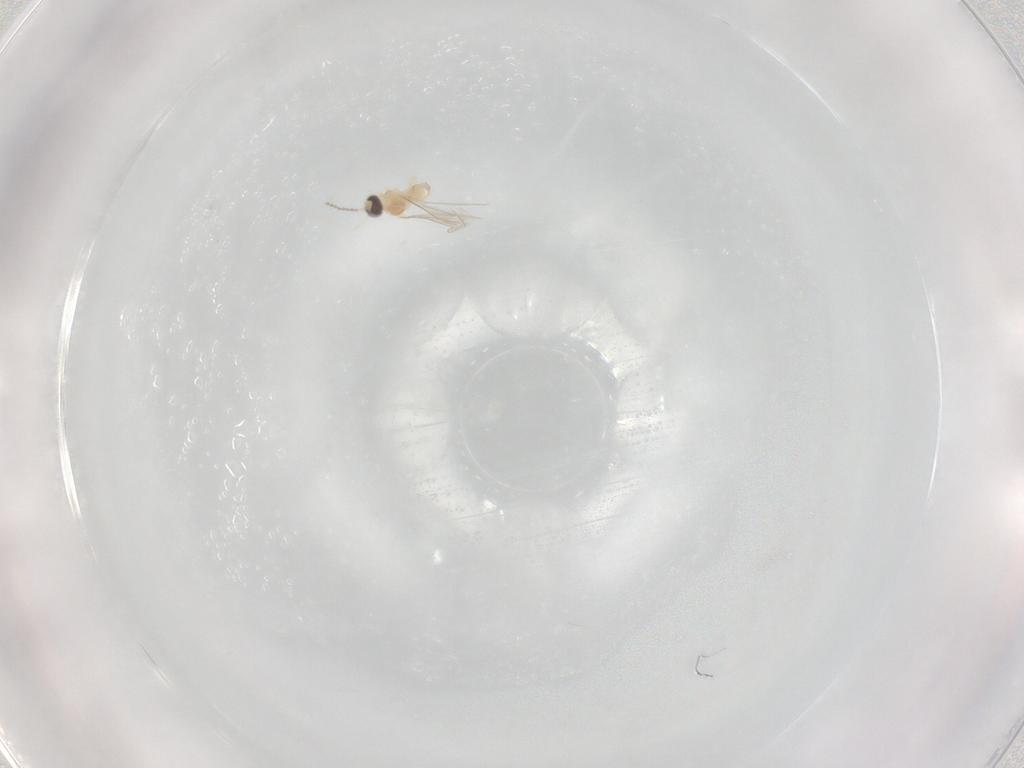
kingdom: Animalia
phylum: Arthropoda
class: Insecta
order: Diptera
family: Cecidomyiidae
